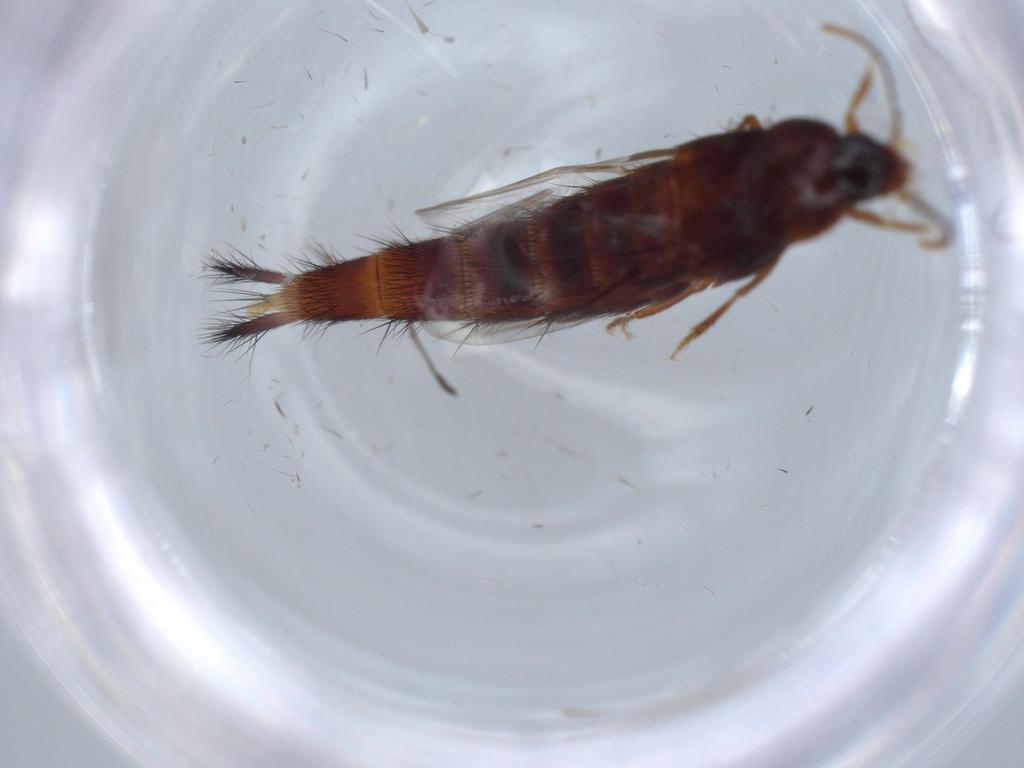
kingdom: Animalia
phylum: Arthropoda
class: Insecta
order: Coleoptera
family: Staphylinidae
